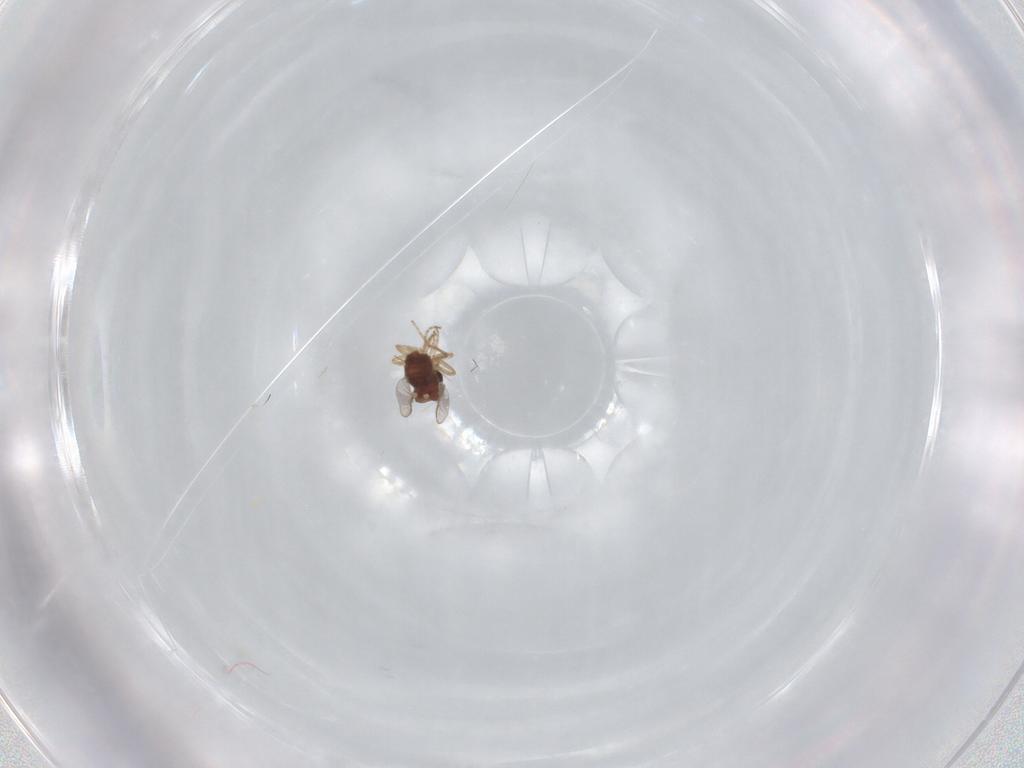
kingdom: Animalia
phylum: Arthropoda
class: Insecta
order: Diptera
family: Ceratopogonidae
